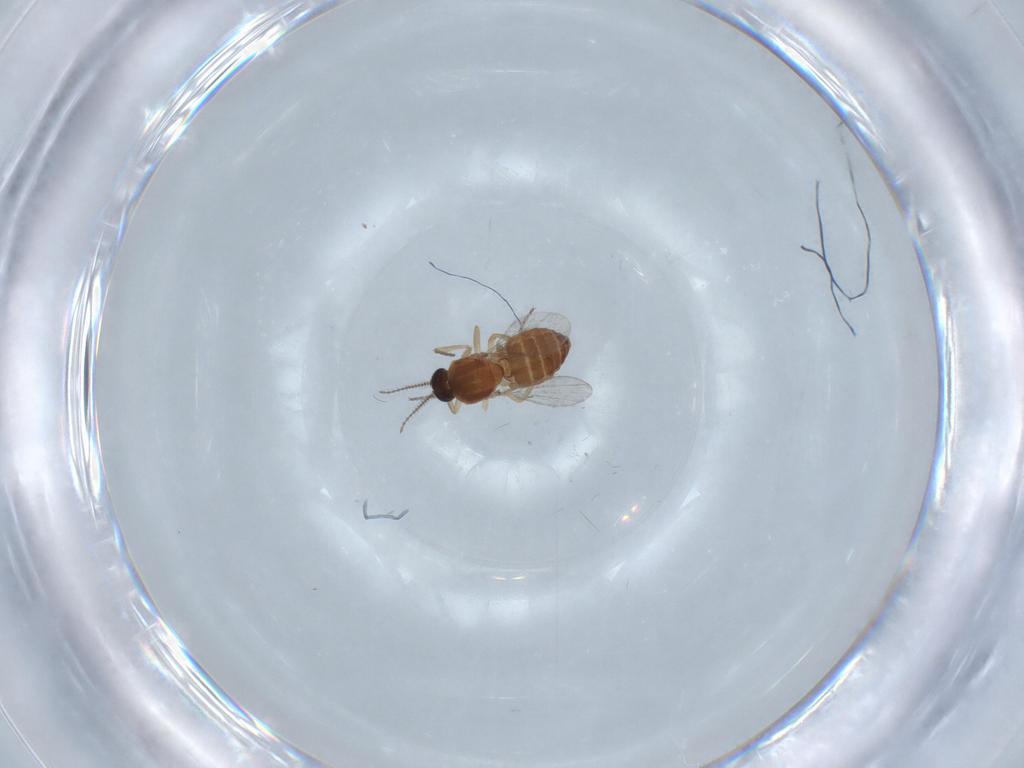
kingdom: Animalia
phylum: Arthropoda
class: Insecta
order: Diptera
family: Ceratopogonidae
